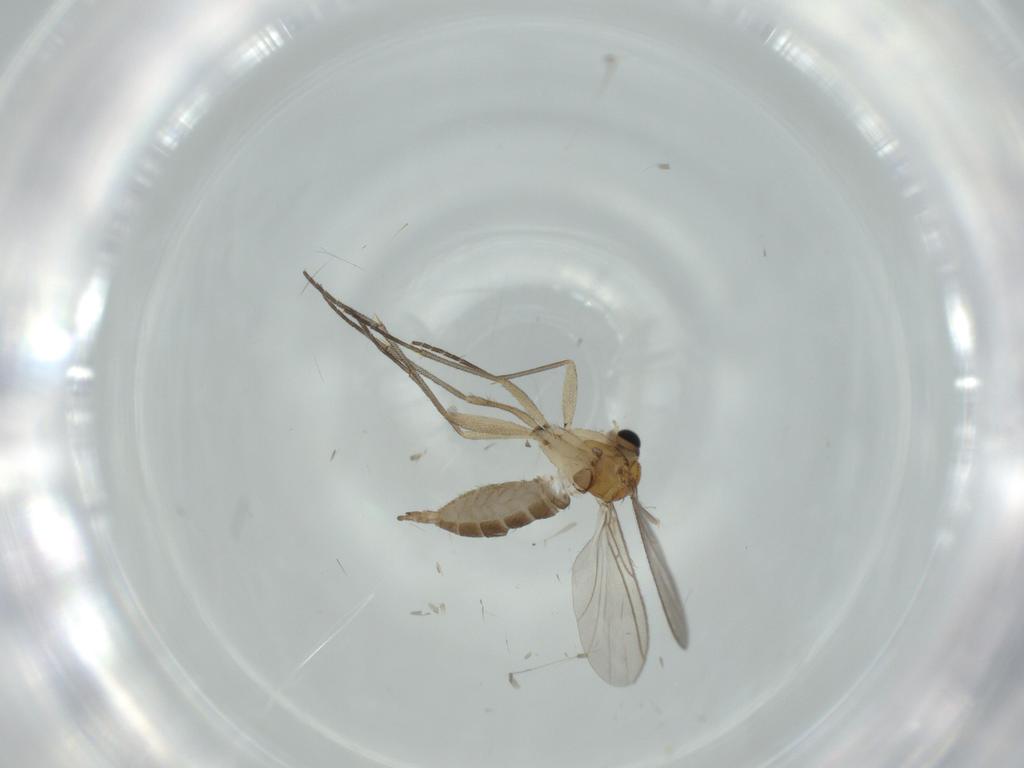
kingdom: Animalia
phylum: Arthropoda
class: Insecta
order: Diptera
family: Sciaridae
